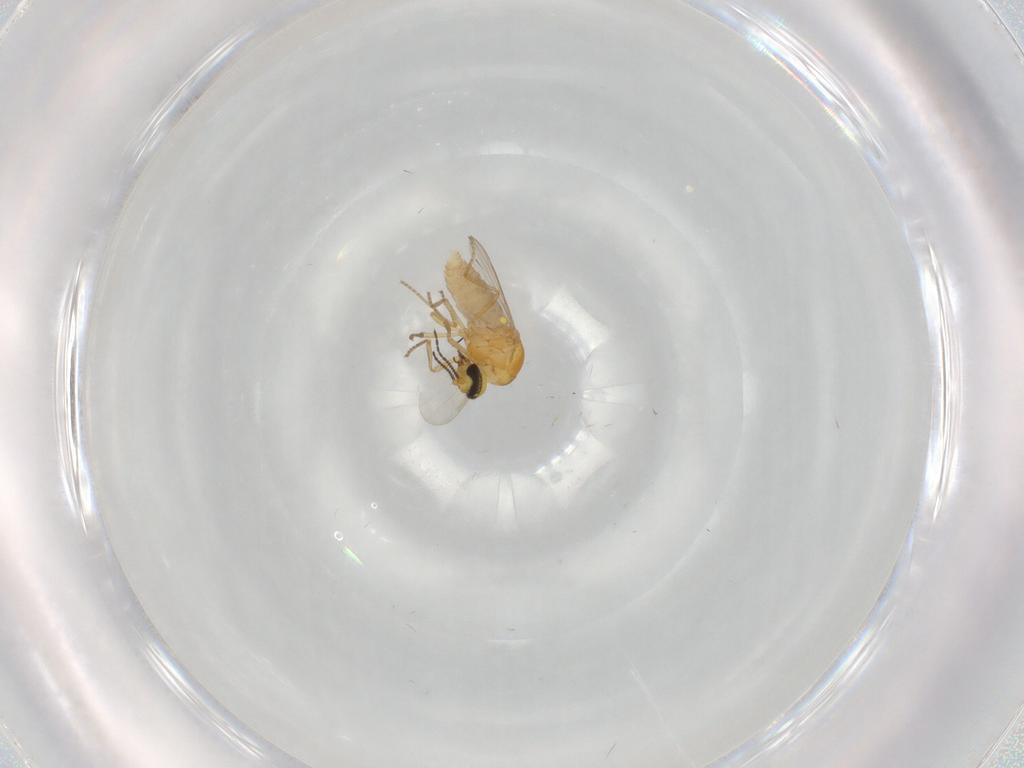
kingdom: Animalia
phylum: Arthropoda
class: Insecta
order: Diptera
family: Ceratopogonidae
